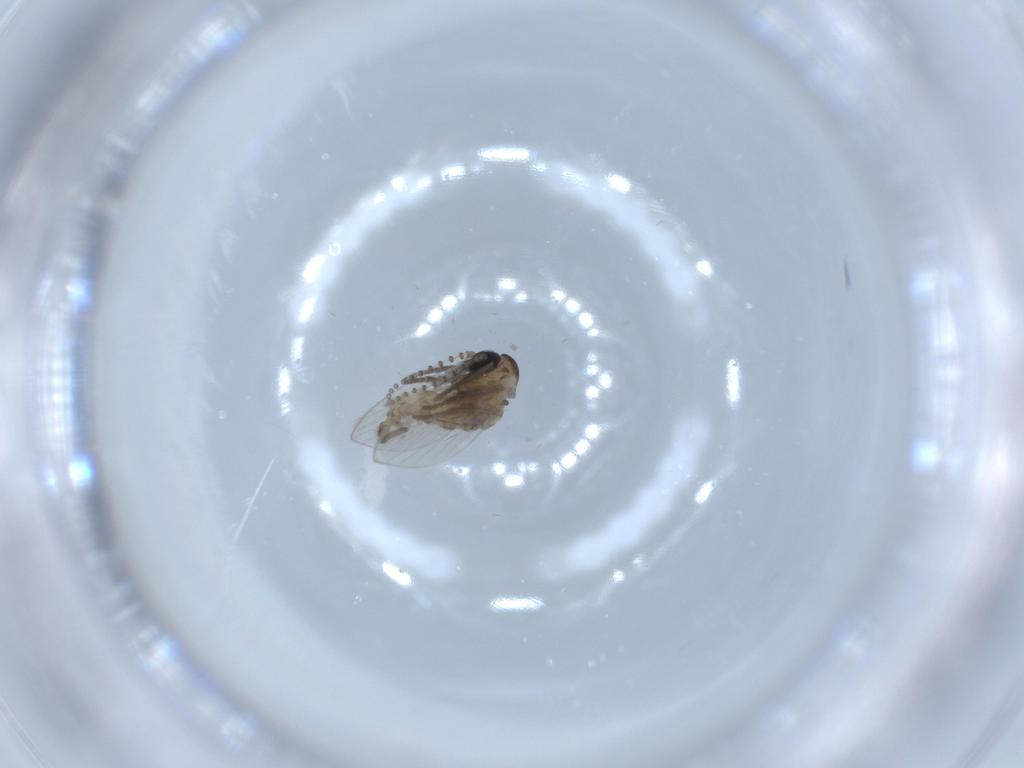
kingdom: Animalia
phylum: Arthropoda
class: Insecta
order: Diptera
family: Psychodidae
